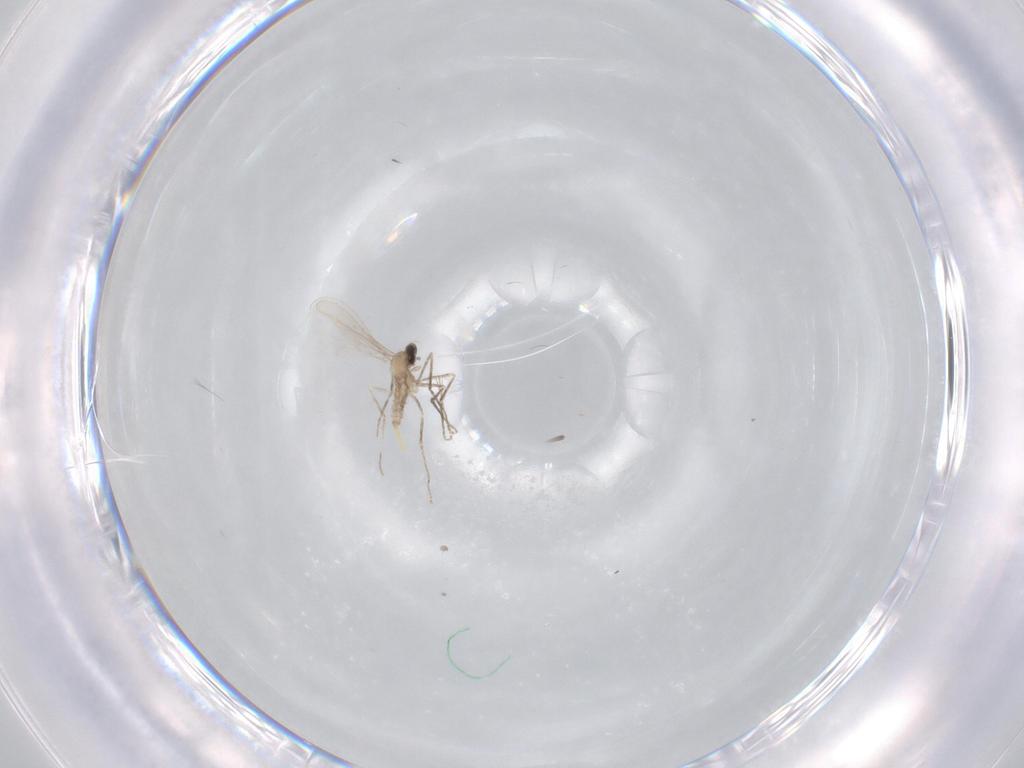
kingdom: Animalia
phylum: Arthropoda
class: Insecta
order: Diptera
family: Cecidomyiidae
